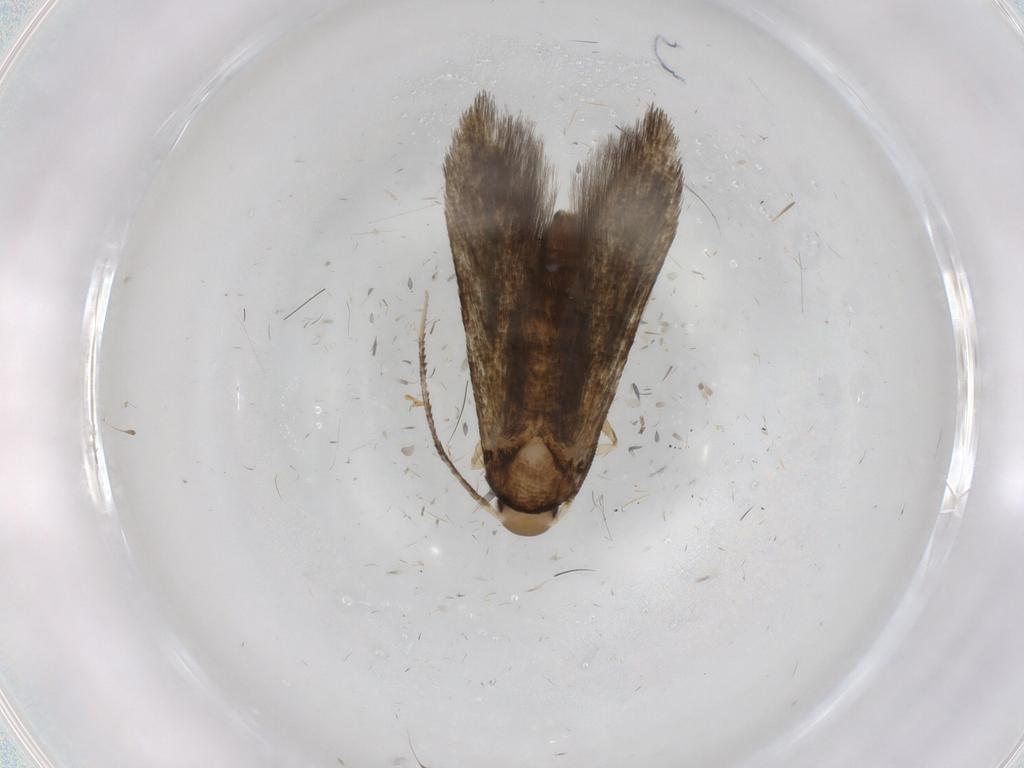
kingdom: Animalia
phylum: Arthropoda
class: Insecta
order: Lepidoptera
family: Stathmopodidae
